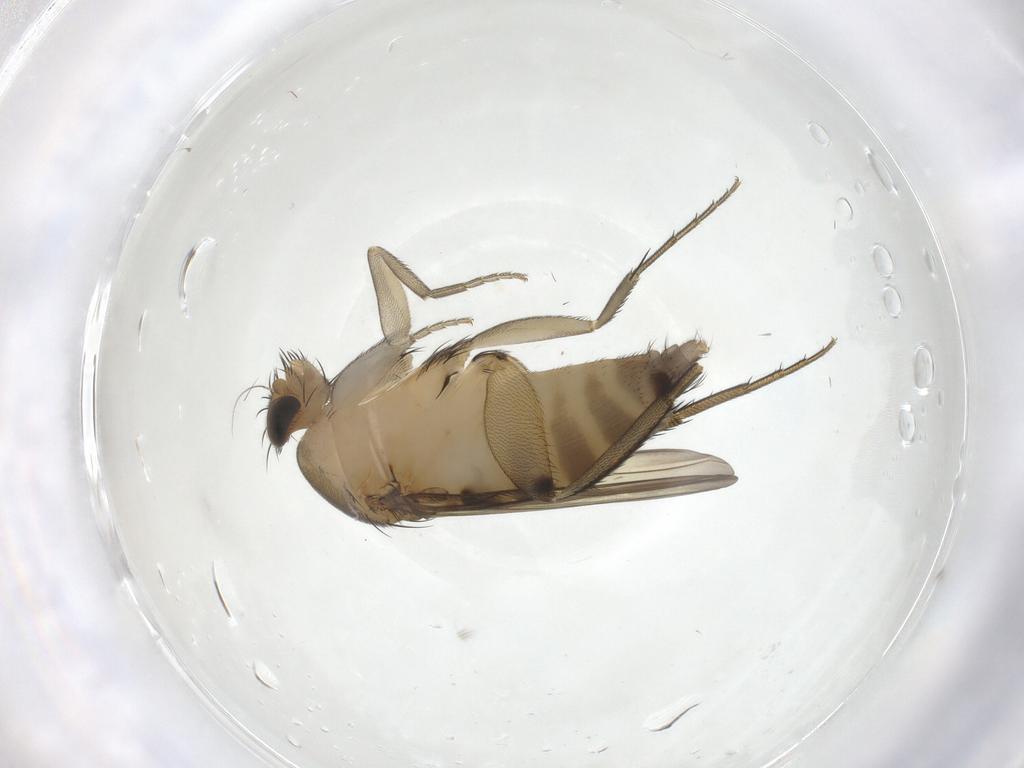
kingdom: Animalia
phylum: Arthropoda
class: Insecta
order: Diptera
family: Phoridae
